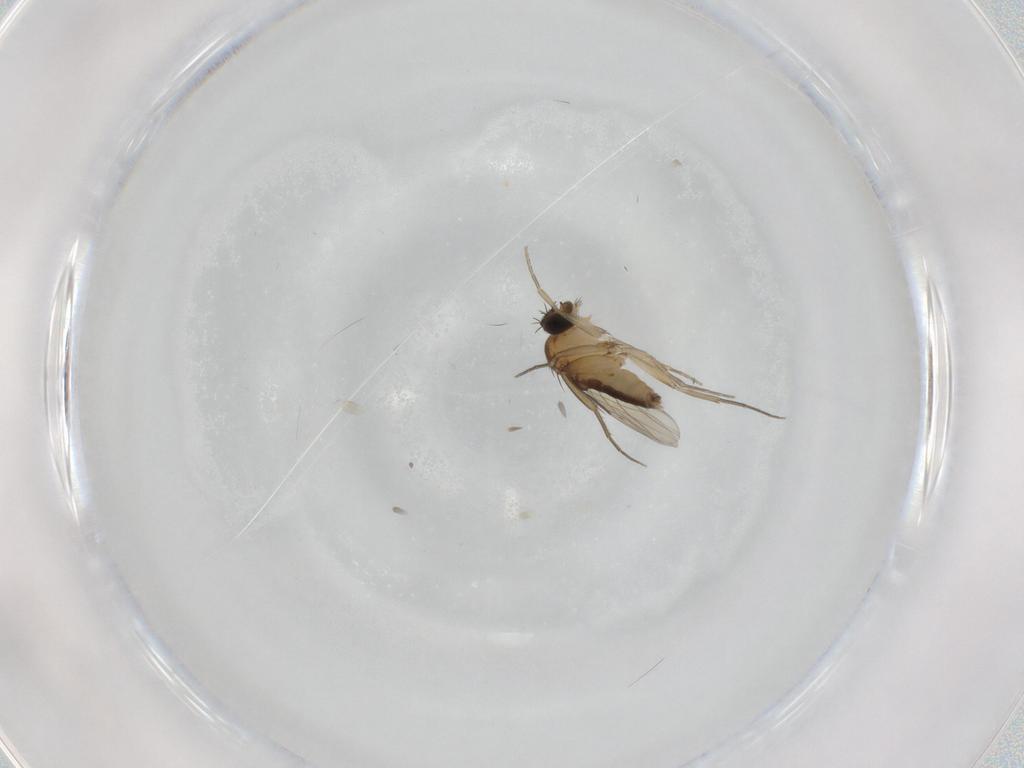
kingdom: Animalia
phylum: Arthropoda
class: Insecta
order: Diptera
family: Phoridae
